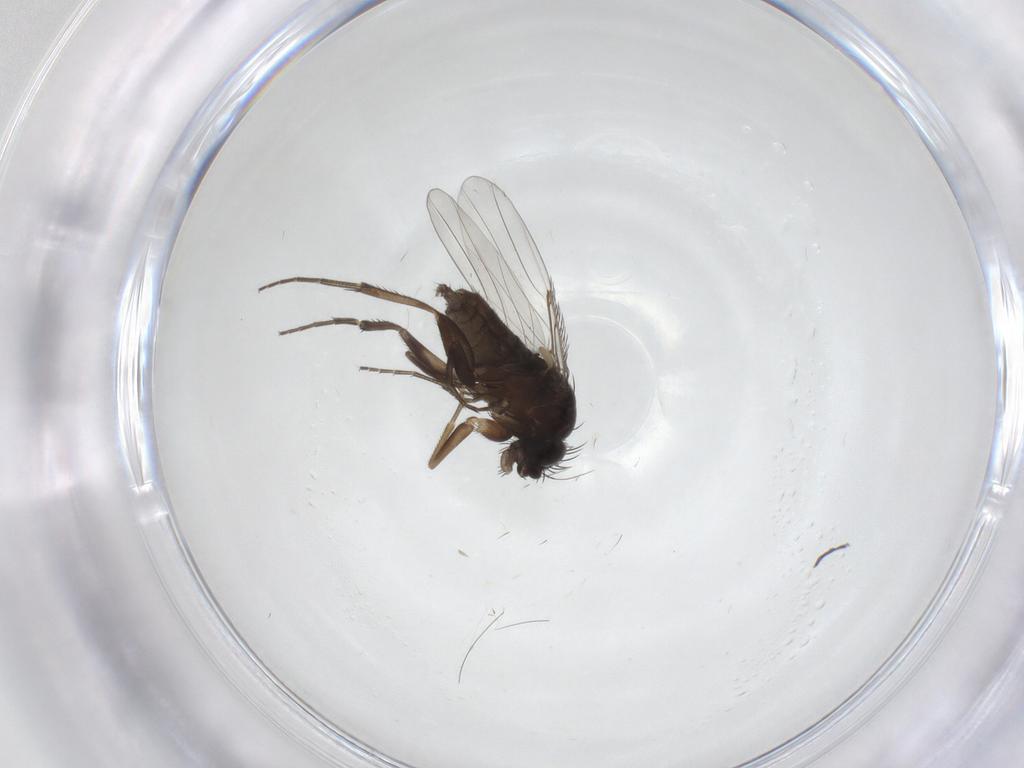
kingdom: Animalia
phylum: Arthropoda
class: Insecta
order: Diptera
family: Phoridae
